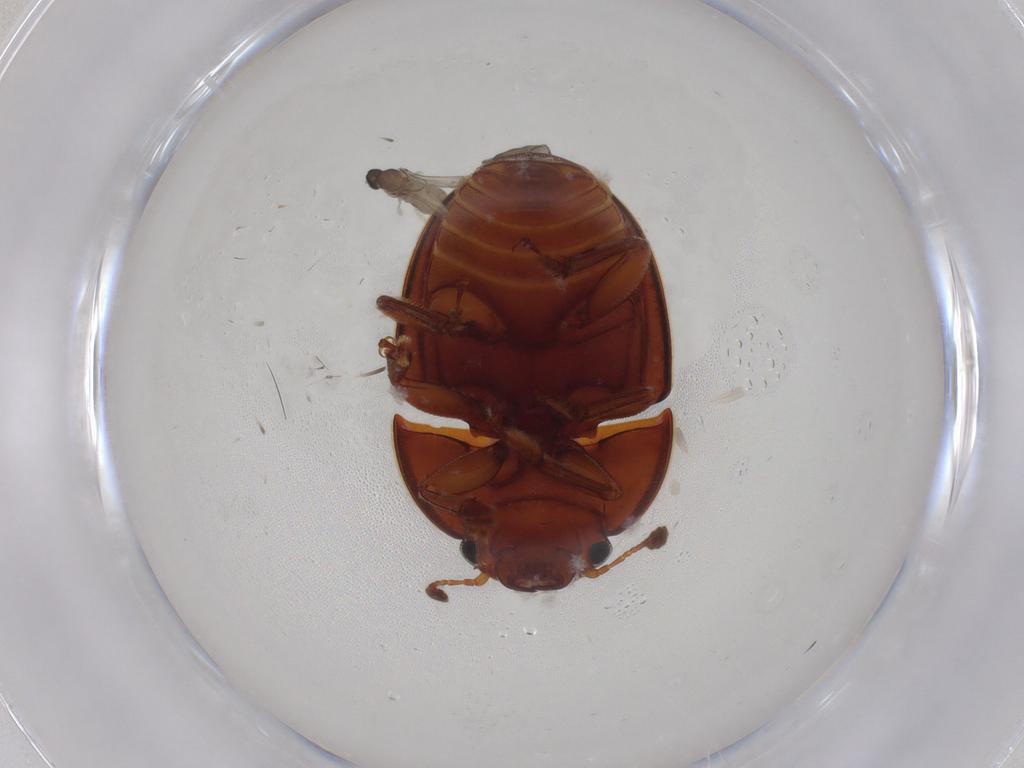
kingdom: Animalia
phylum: Arthropoda
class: Insecta
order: Coleoptera
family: Nitidulidae
